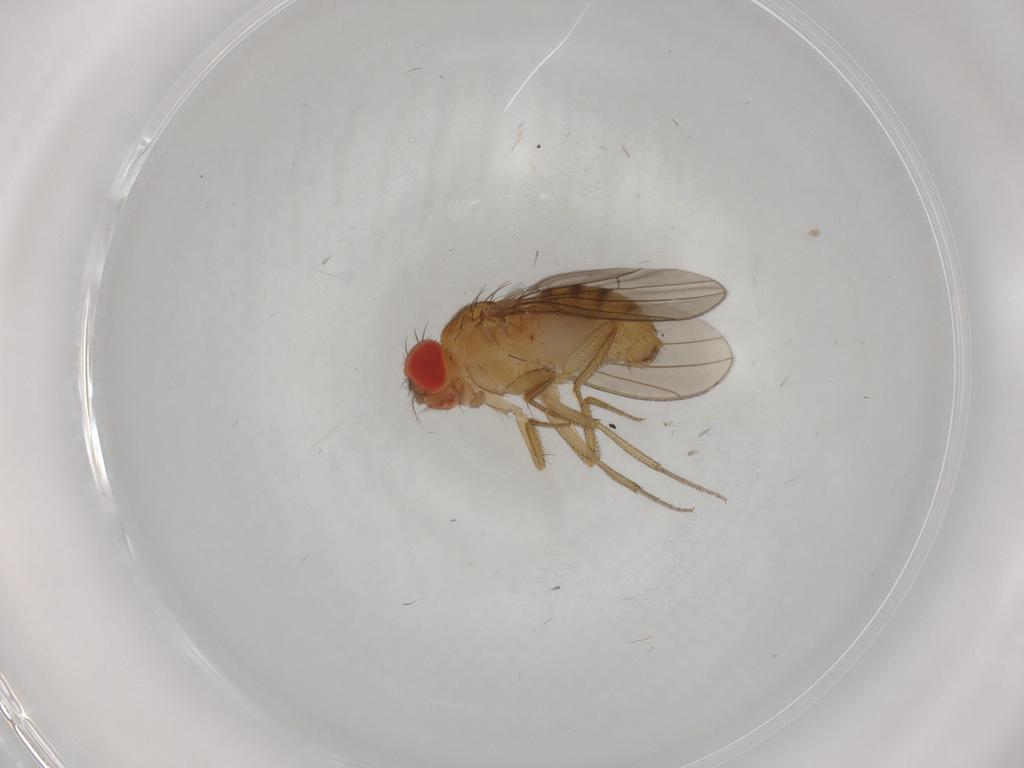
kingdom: Animalia
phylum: Arthropoda
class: Insecta
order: Diptera
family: Drosophilidae
